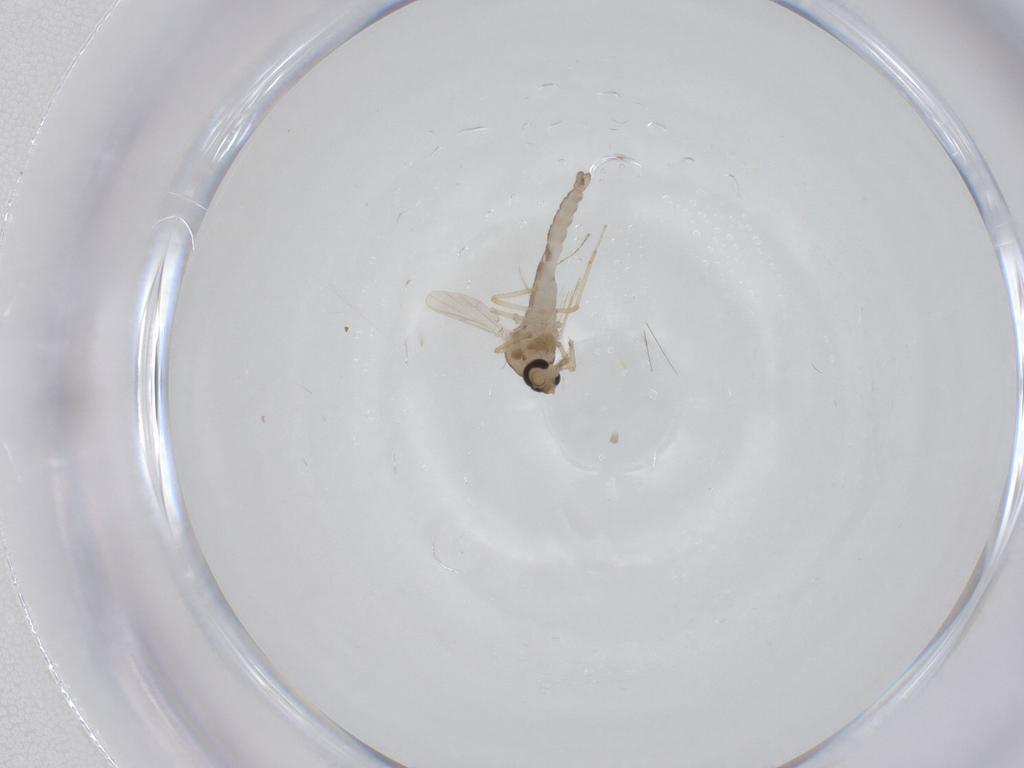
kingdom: Animalia
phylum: Arthropoda
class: Insecta
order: Diptera
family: Ceratopogonidae
